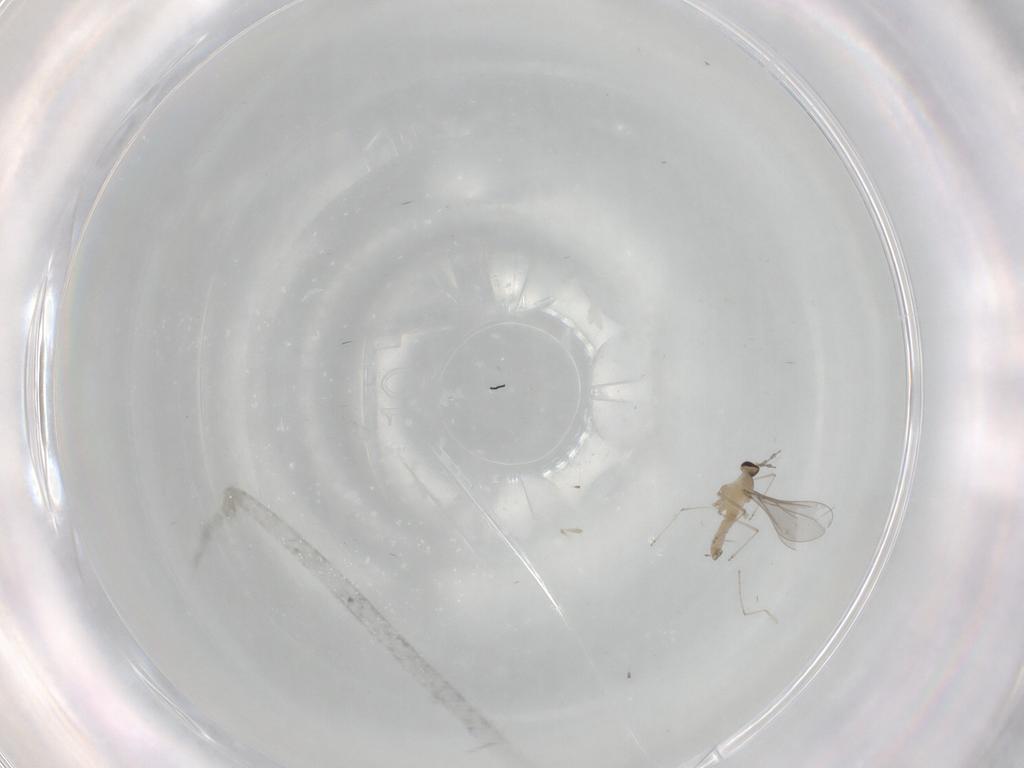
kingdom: Animalia
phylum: Arthropoda
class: Insecta
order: Diptera
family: Cecidomyiidae
